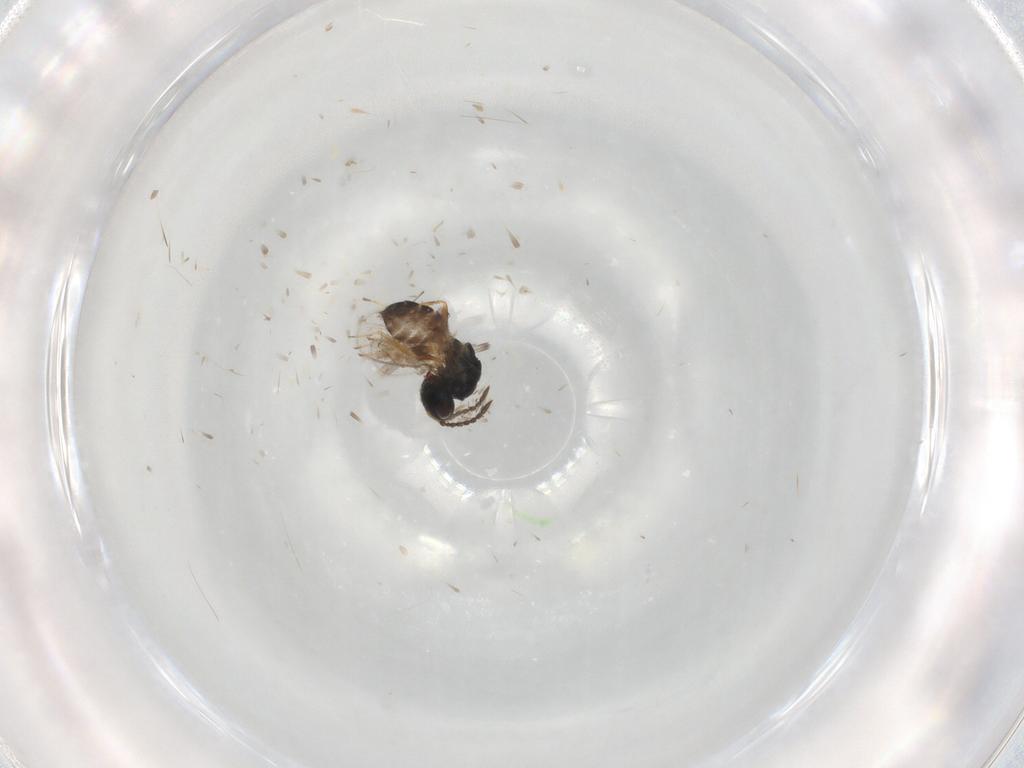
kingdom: Animalia
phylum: Arthropoda
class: Insecta
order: Hymenoptera
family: Pteromalidae
